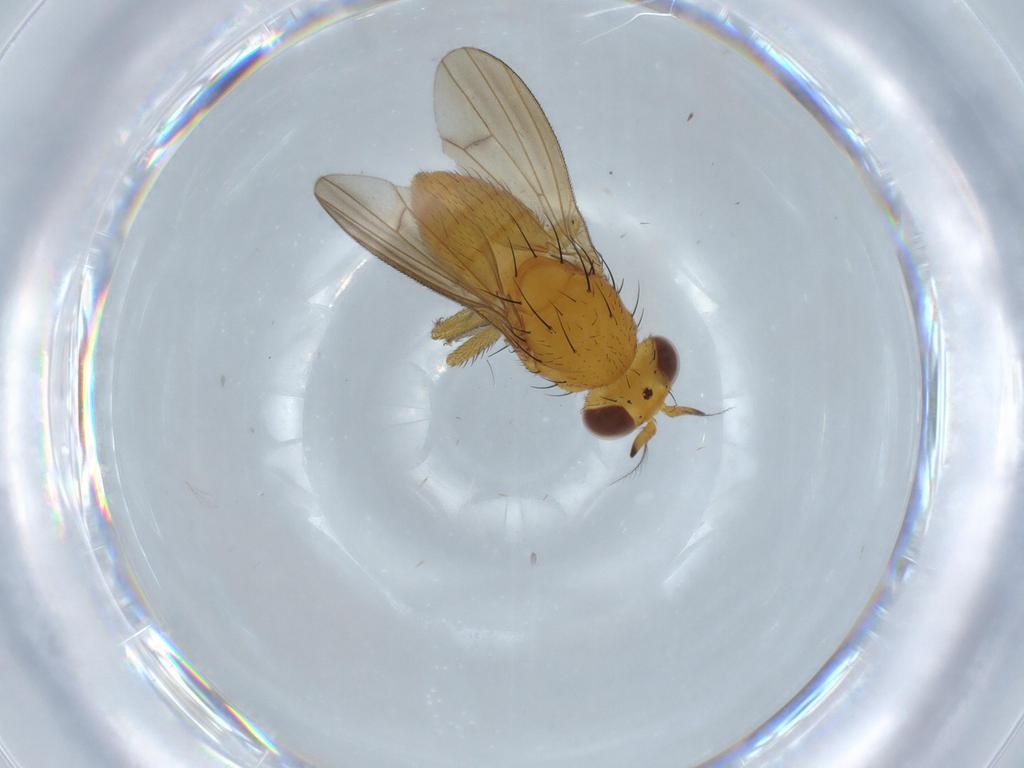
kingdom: Animalia
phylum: Arthropoda
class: Insecta
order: Diptera
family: Lauxaniidae
